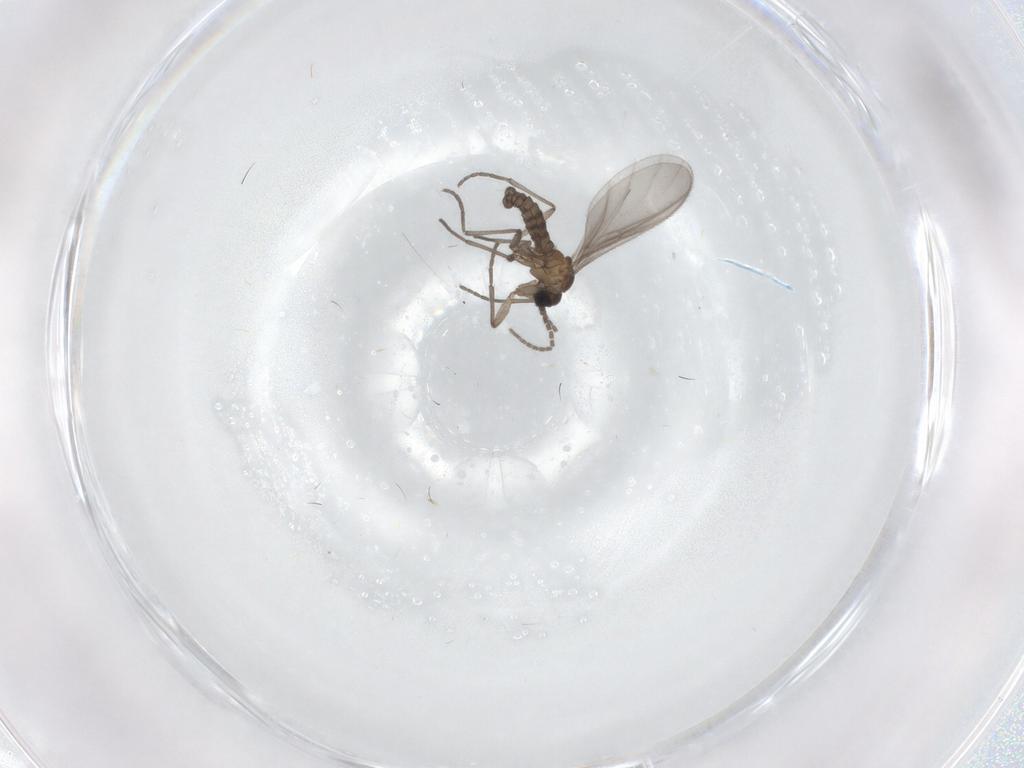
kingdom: Animalia
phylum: Arthropoda
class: Insecta
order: Diptera
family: Sciaridae
